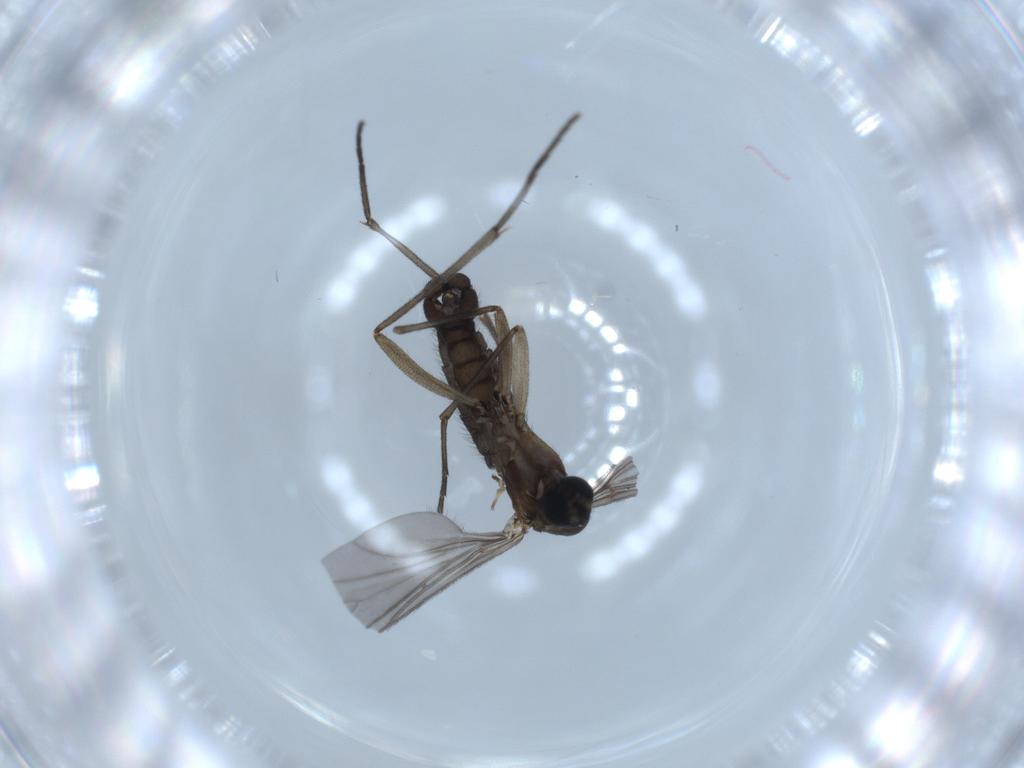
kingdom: Animalia
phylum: Arthropoda
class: Insecta
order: Diptera
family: Sciaridae
